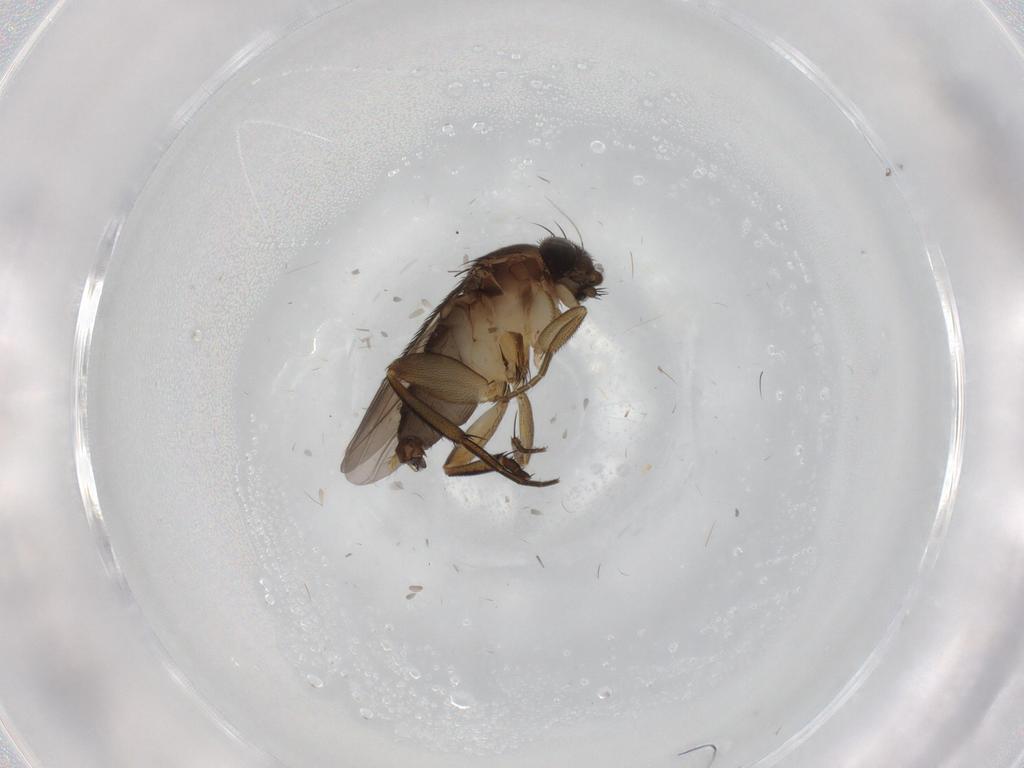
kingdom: Animalia
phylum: Arthropoda
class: Insecta
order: Diptera
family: Phoridae
